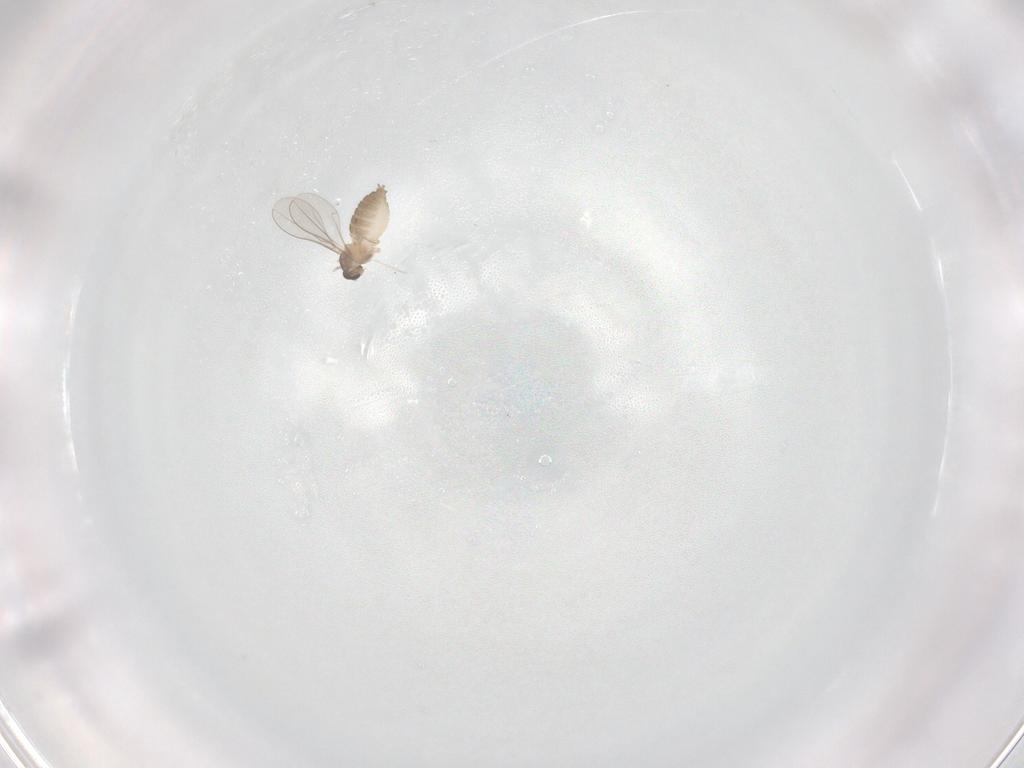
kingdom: Animalia
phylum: Arthropoda
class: Insecta
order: Diptera
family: Cecidomyiidae
